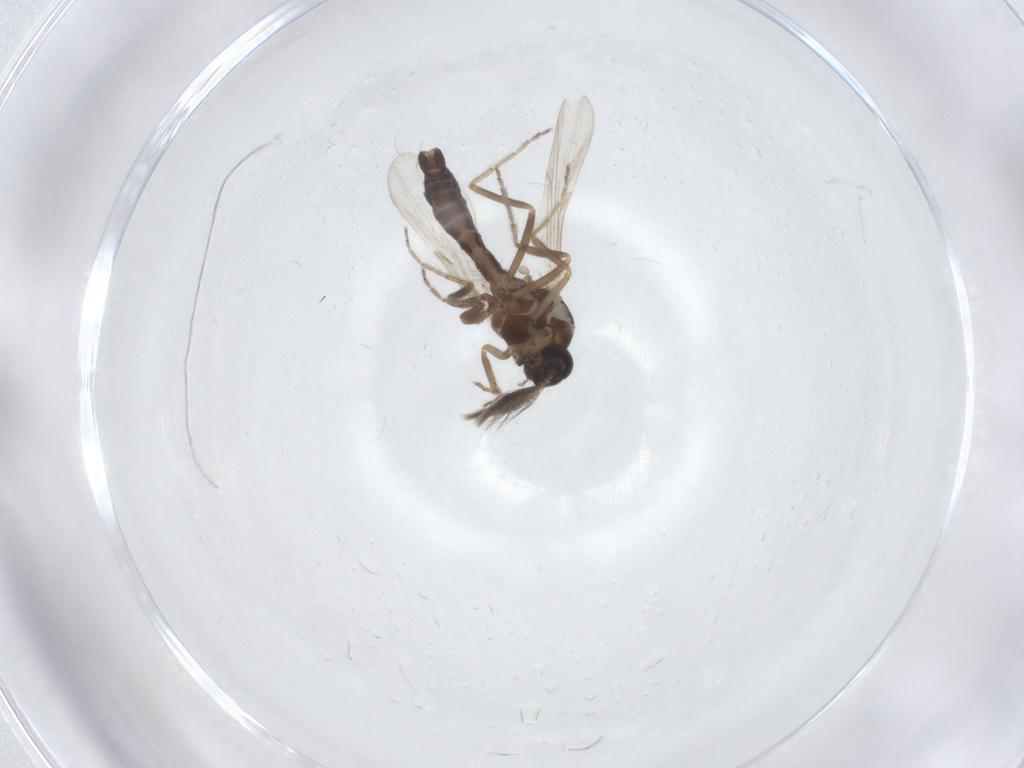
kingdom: Animalia
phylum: Arthropoda
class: Insecta
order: Diptera
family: Ceratopogonidae
